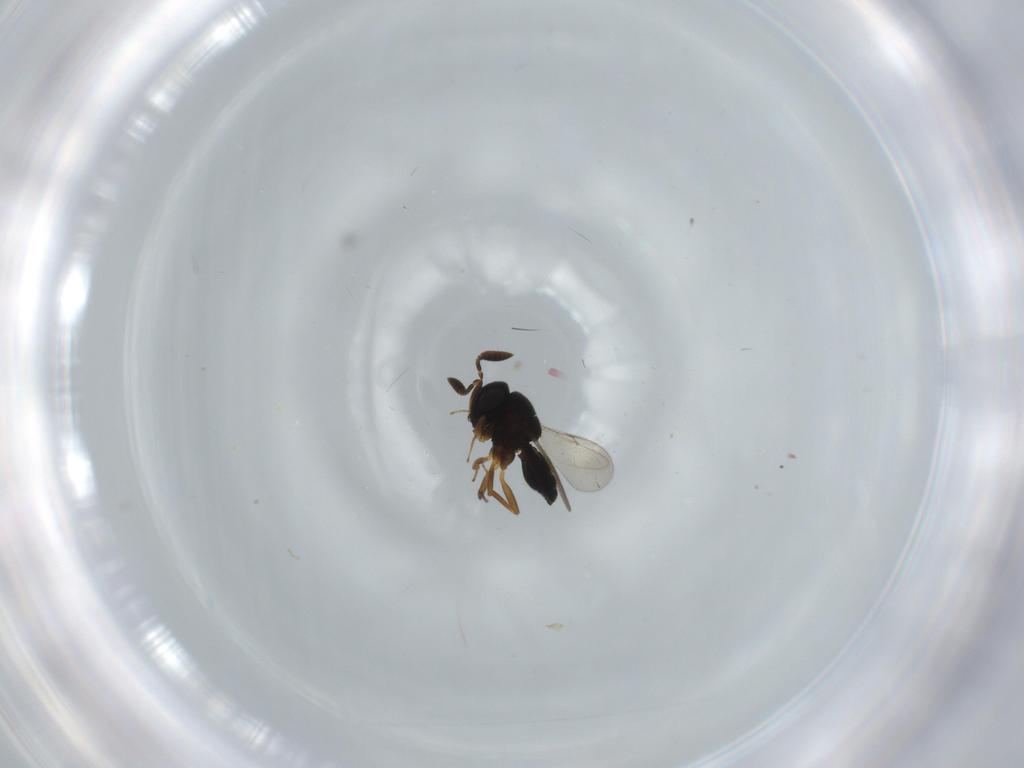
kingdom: Animalia
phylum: Arthropoda
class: Insecta
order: Hymenoptera
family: Scelionidae
